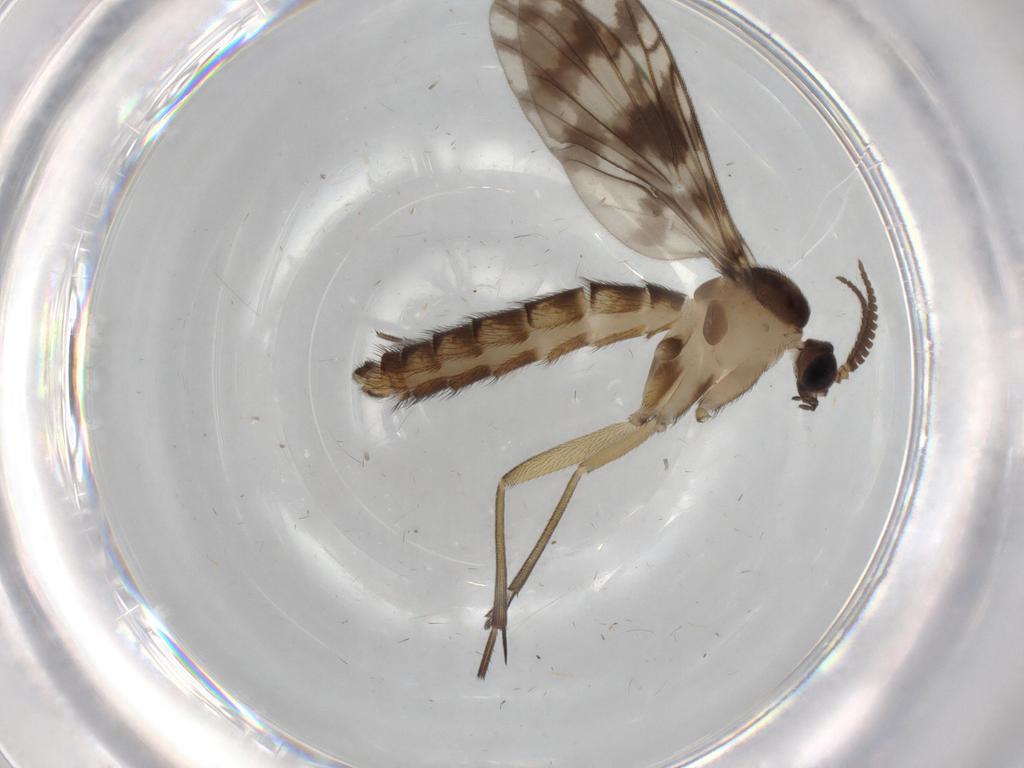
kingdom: Animalia
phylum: Arthropoda
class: Insecta
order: Diptera
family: Keroplatidae
